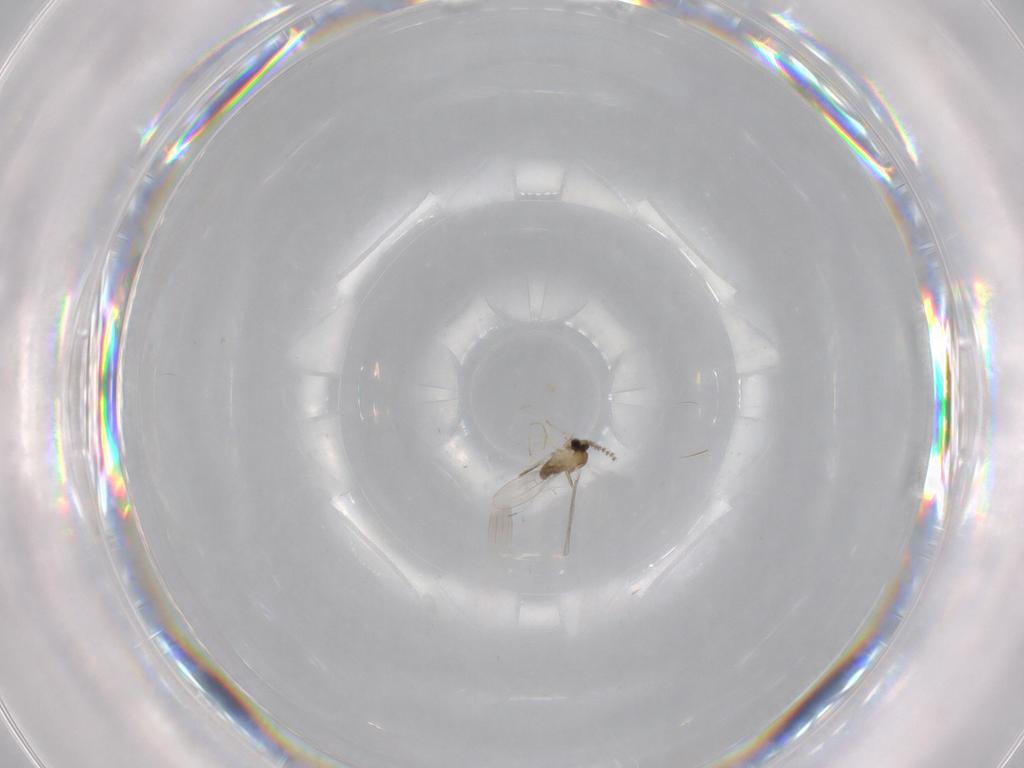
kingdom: Animalia
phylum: Arthropoda
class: Insecta
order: Diptera
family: Cecidomyiidae
